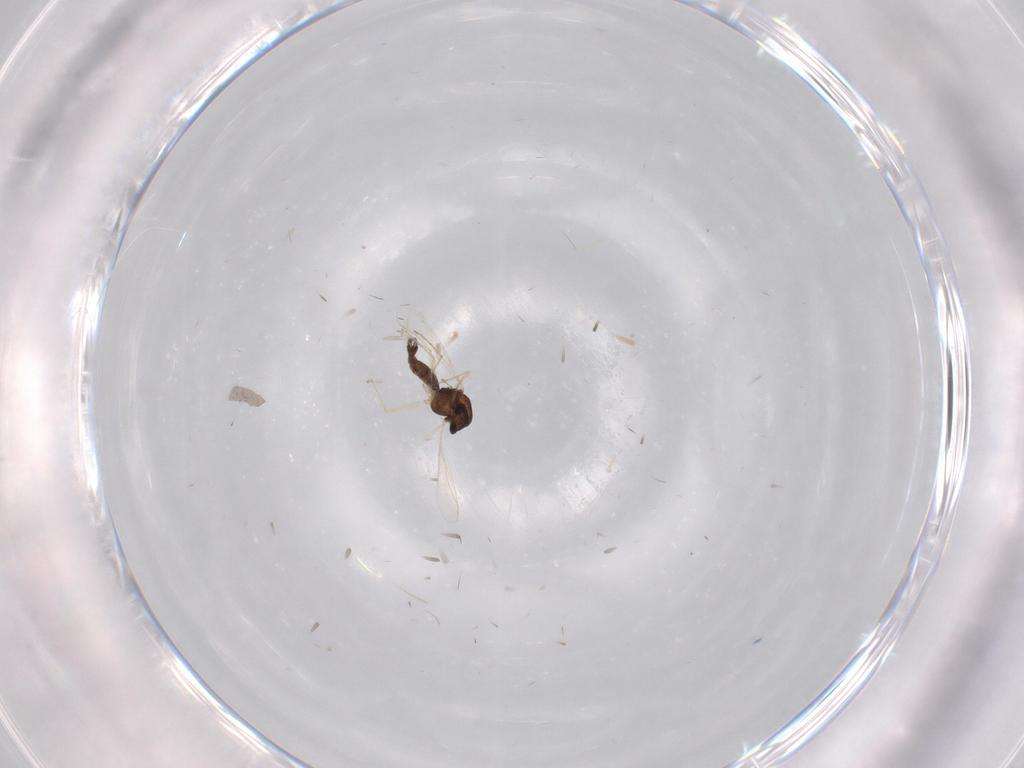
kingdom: Animalia
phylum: Arthropoda
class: Insecta
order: Diptera
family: Chironomidae
